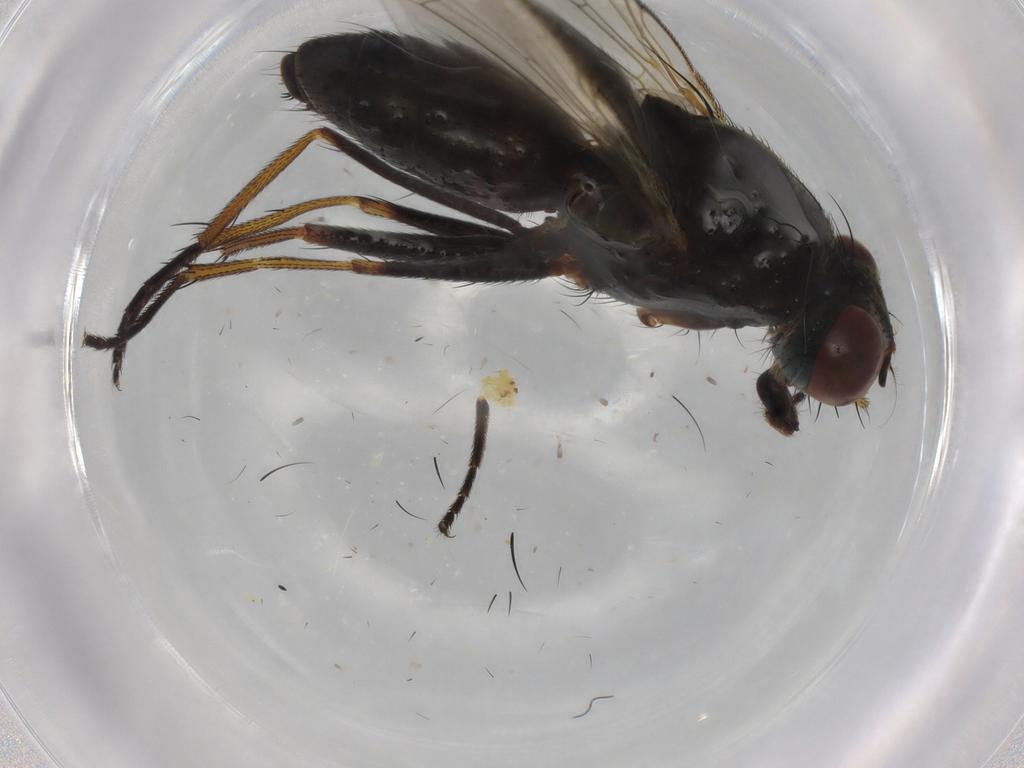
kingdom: Animalia
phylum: Arthropoda
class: Insecta
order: Diptera
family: Muscidae
